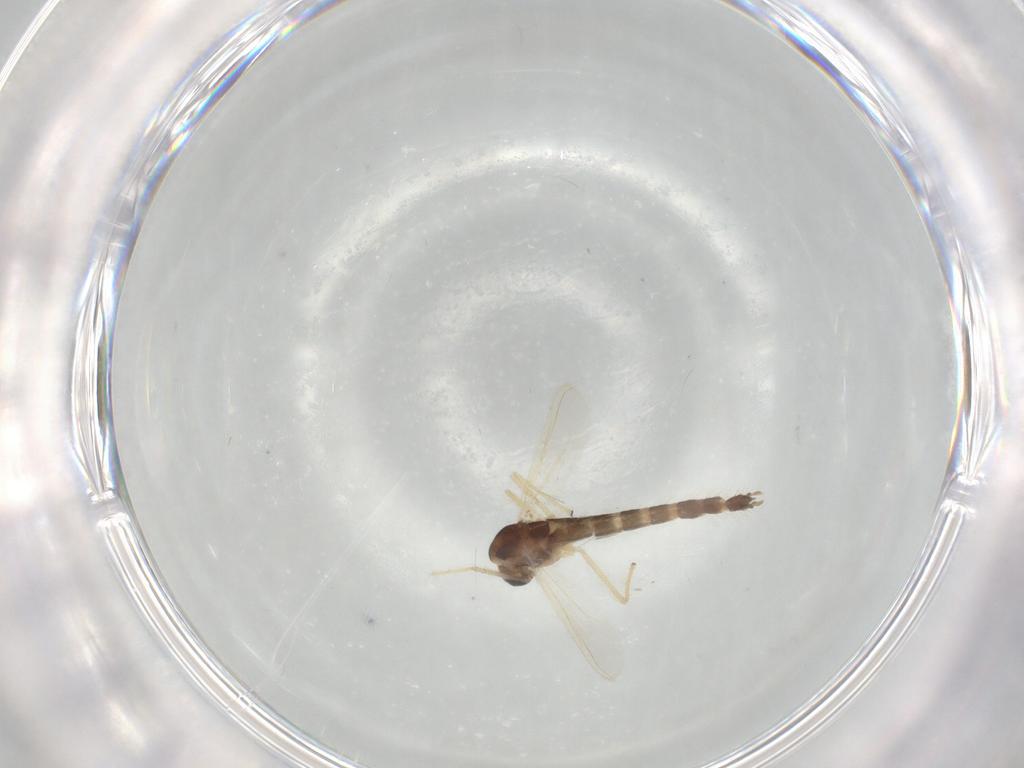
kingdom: Animalia
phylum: Arthropoda
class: Insecta
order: Diptera
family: Chironomidae
